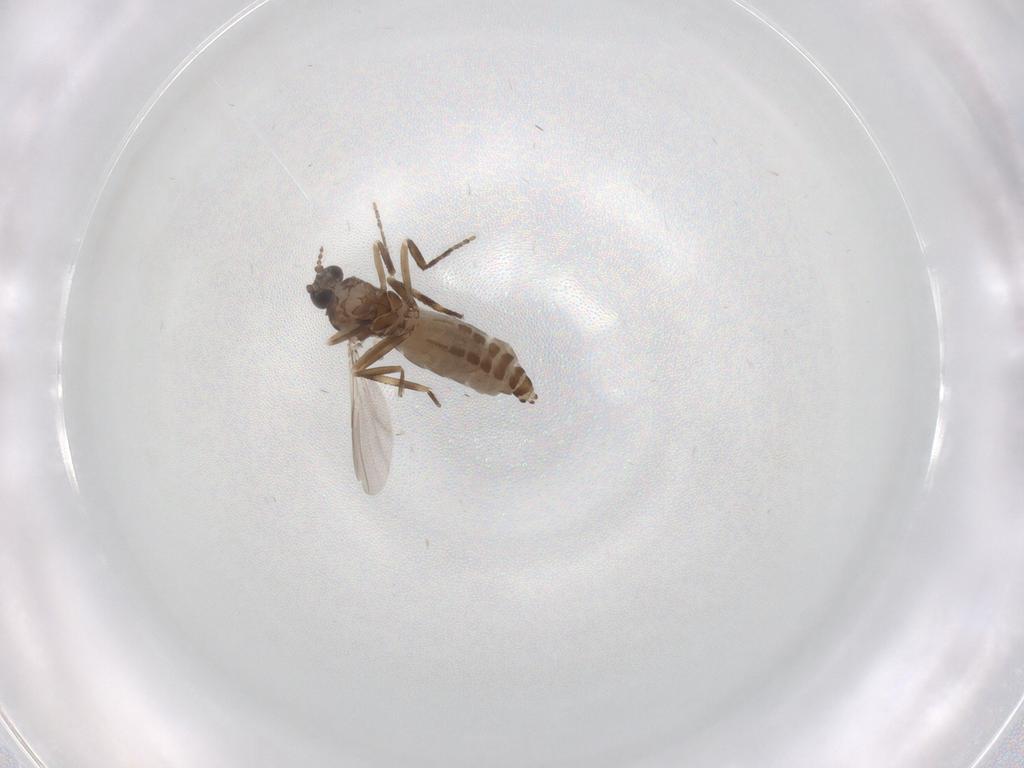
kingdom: Animalia
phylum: Arthropoda
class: Insecta
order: Diptera
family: Ceratopogonidae
